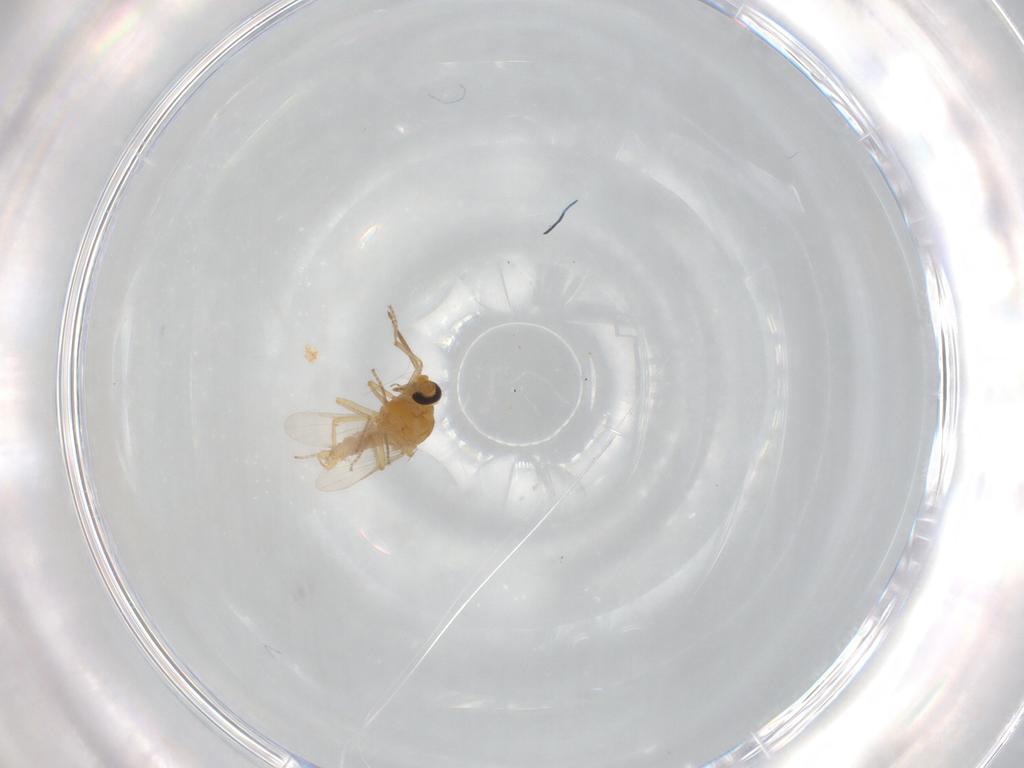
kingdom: Animalia
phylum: Arthropoda
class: Insecta
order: Diptera
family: Ceratopogonidae
